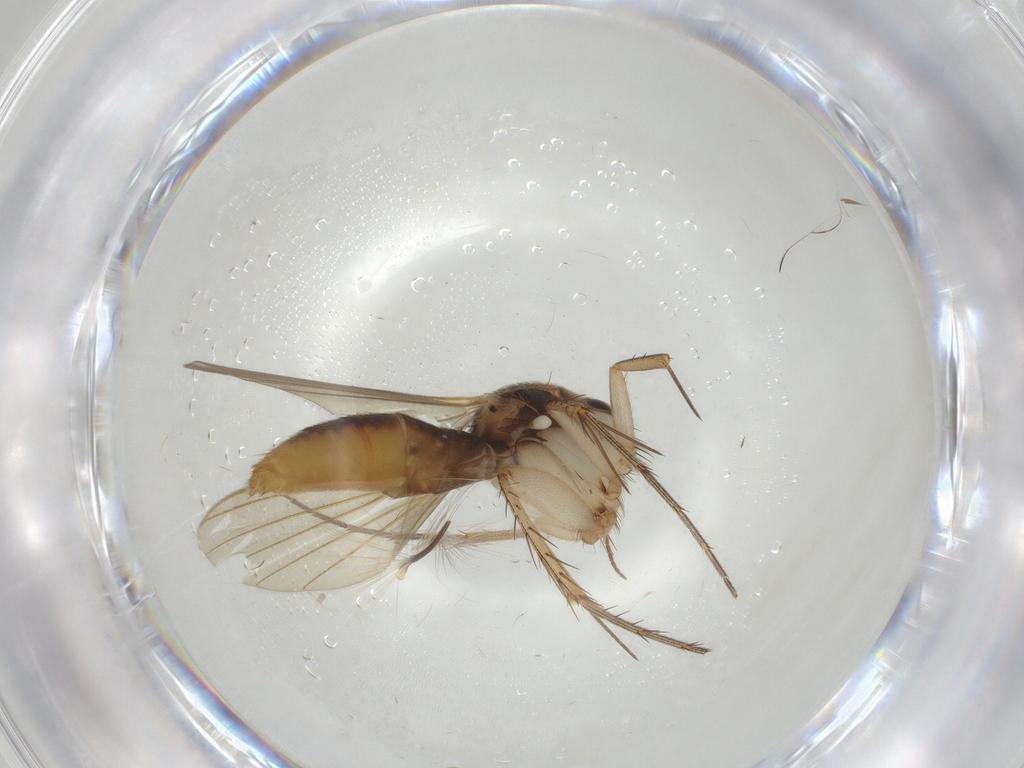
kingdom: Animalia
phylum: Arthropoda
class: Insecta
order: Diptera
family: Mycetophilidae
